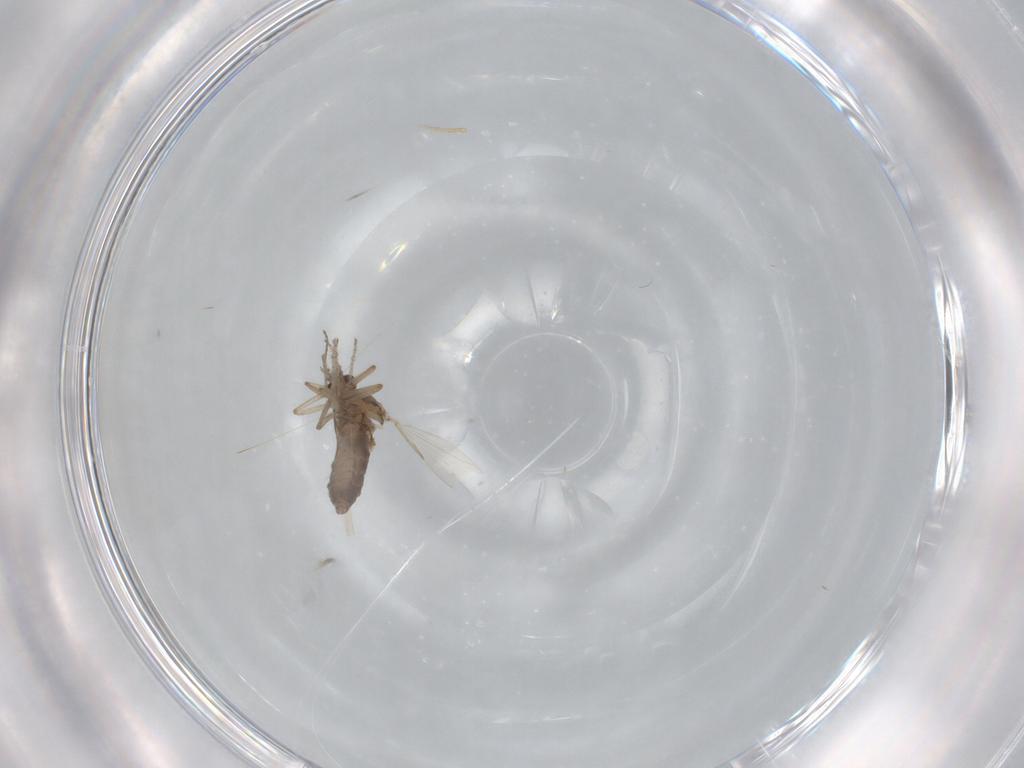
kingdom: Animalia
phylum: Arthropoda
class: Insecta
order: Diptera
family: Ceratopogonidae
